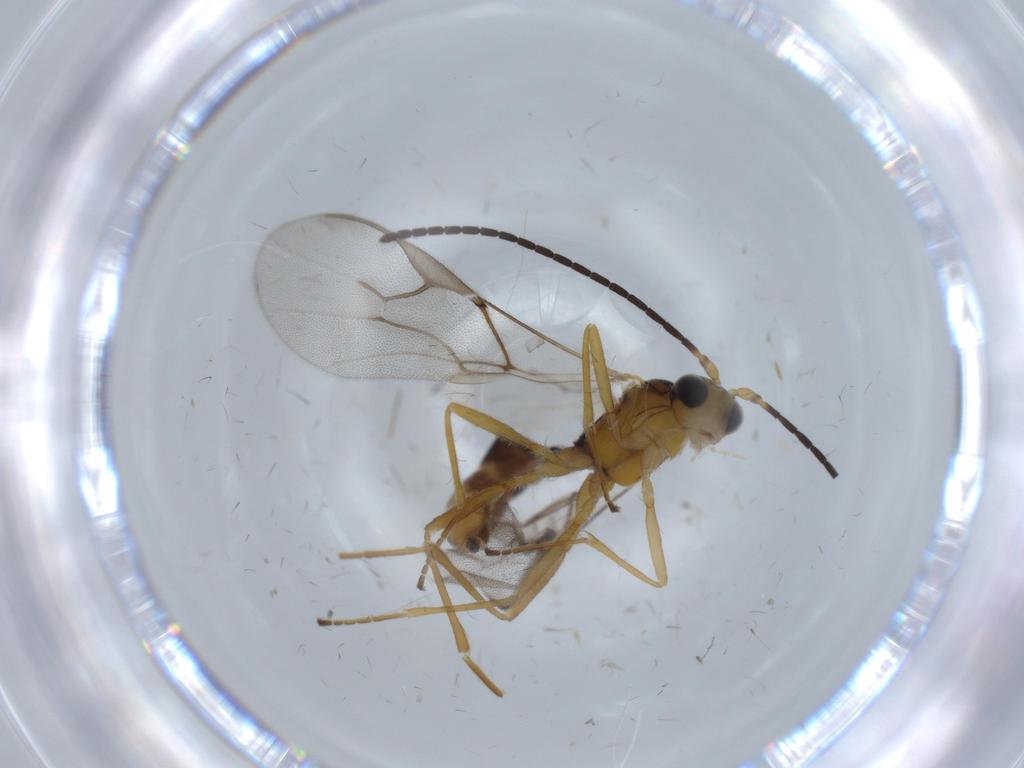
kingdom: Animalia
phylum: Arthropoda
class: Insecta
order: Hymenoptera
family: Braconidae
